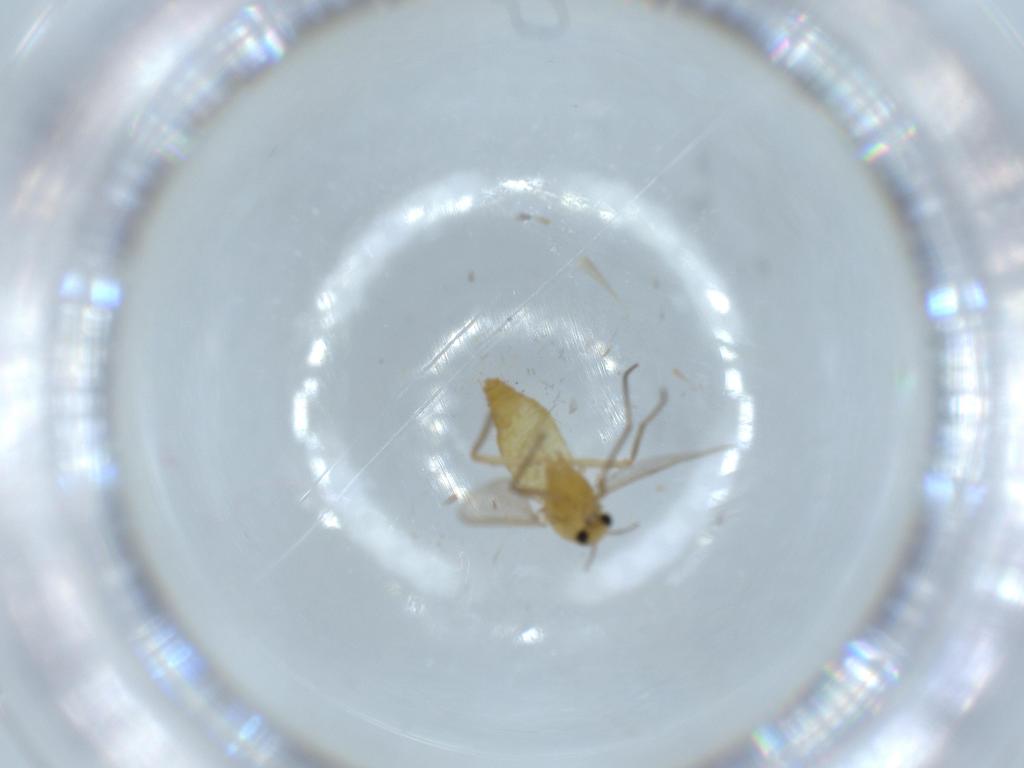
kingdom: Animalia
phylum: Arthropoda
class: Insecta
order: Diptera
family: Chironomidae
